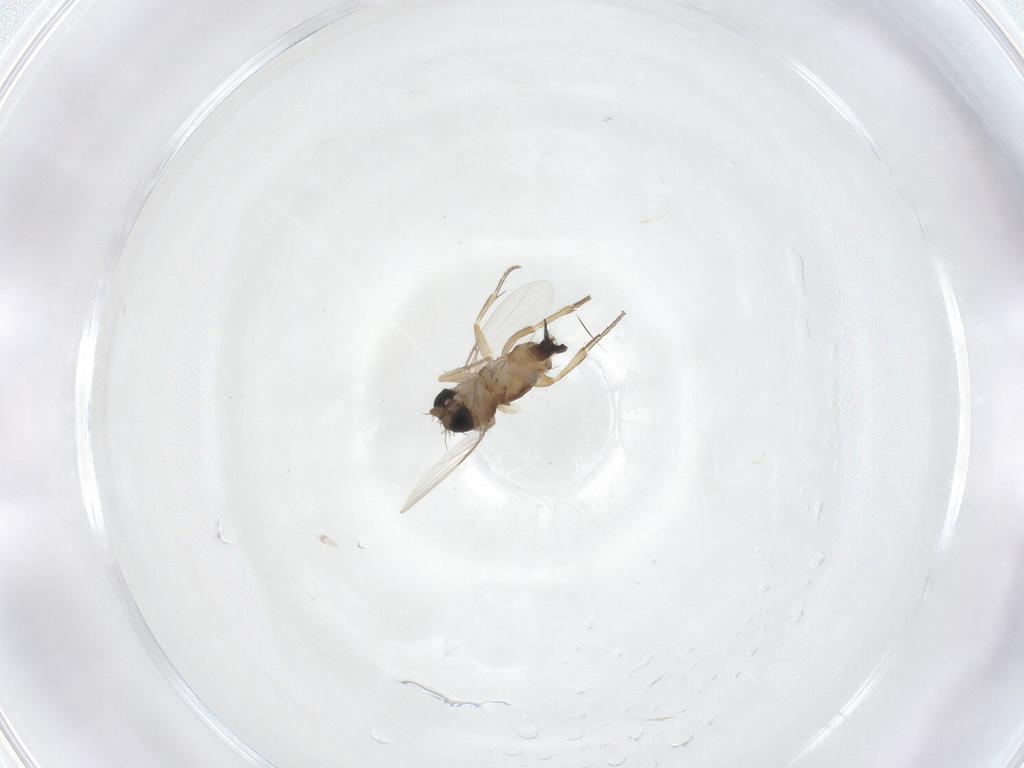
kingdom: Animalia
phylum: Arthropoda
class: Insecta
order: Diptera
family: Phoridae
